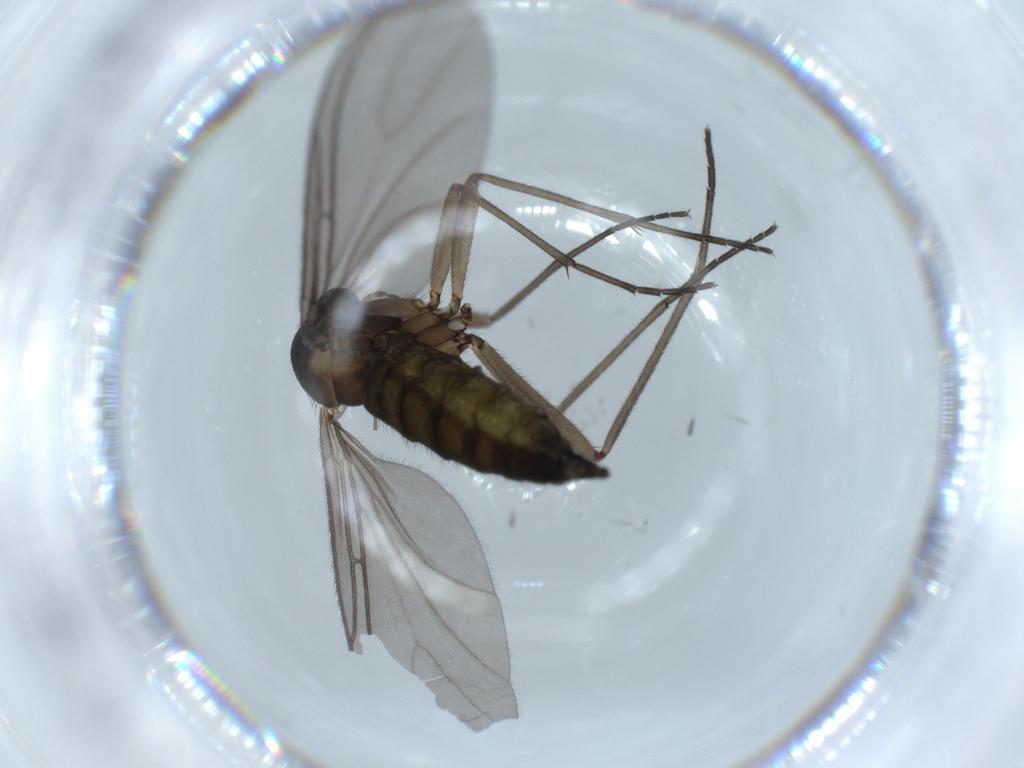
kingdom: Animalia
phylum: Arthropoda
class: Insecta
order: Diptera
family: Sciaridae
